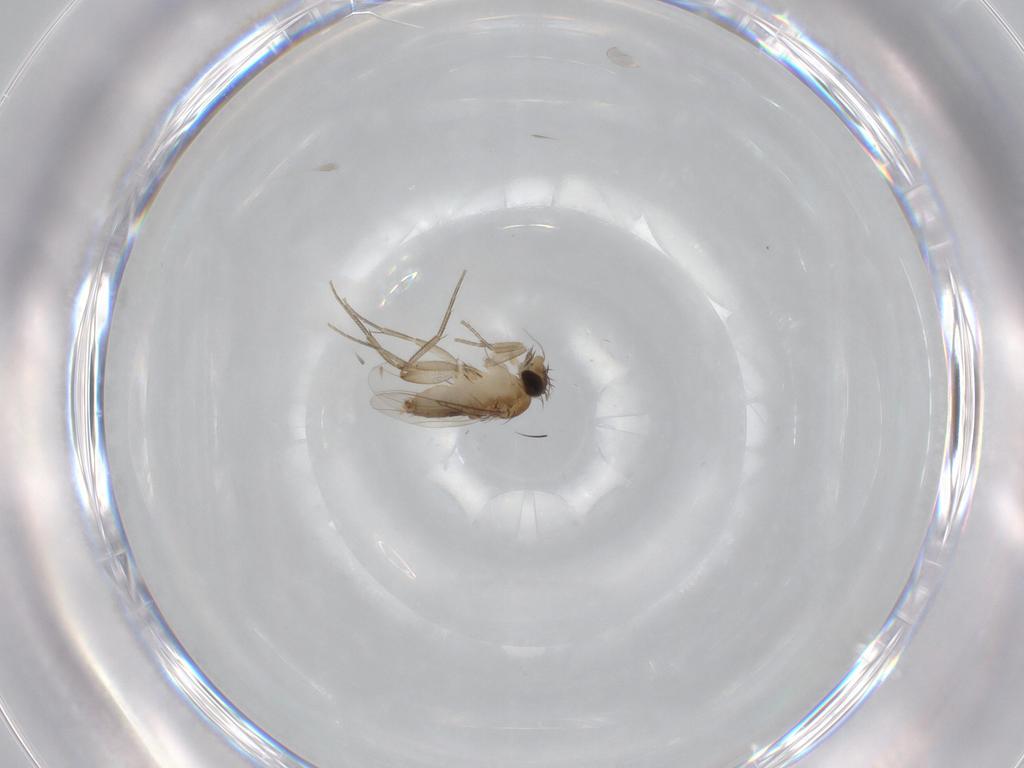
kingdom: Animalia
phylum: Arthropoda
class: Insecta
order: Diptera
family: Phoridae
